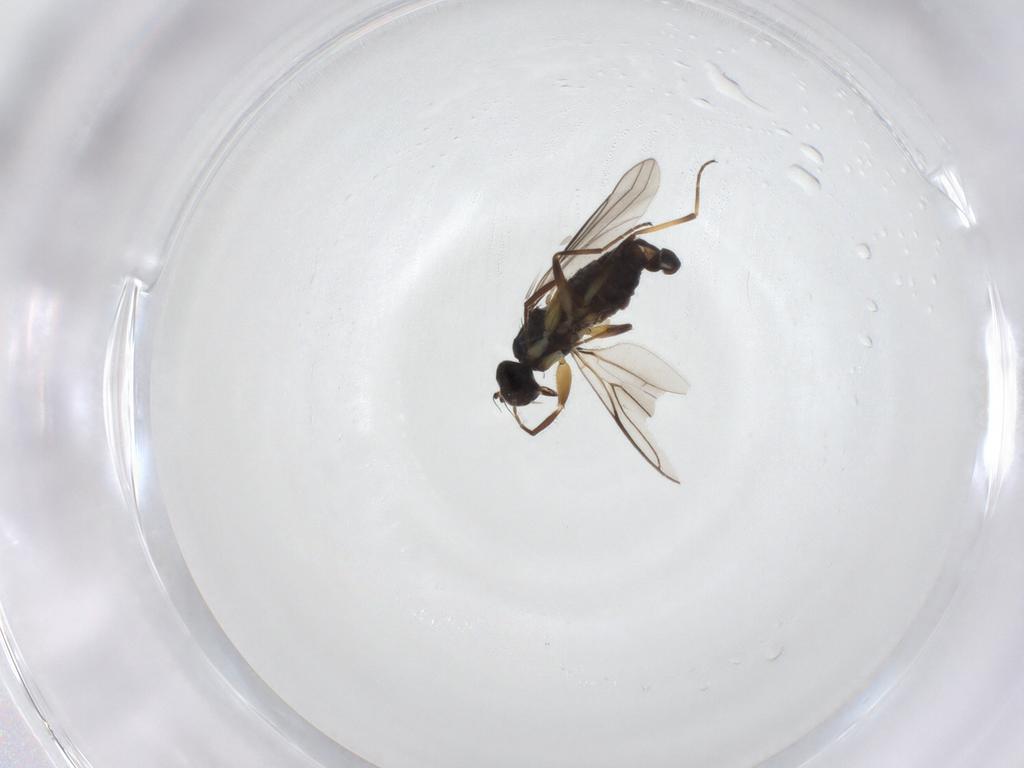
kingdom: Animalia
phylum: Arthropoda
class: Insecta
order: Diptera
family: Hybotidae
